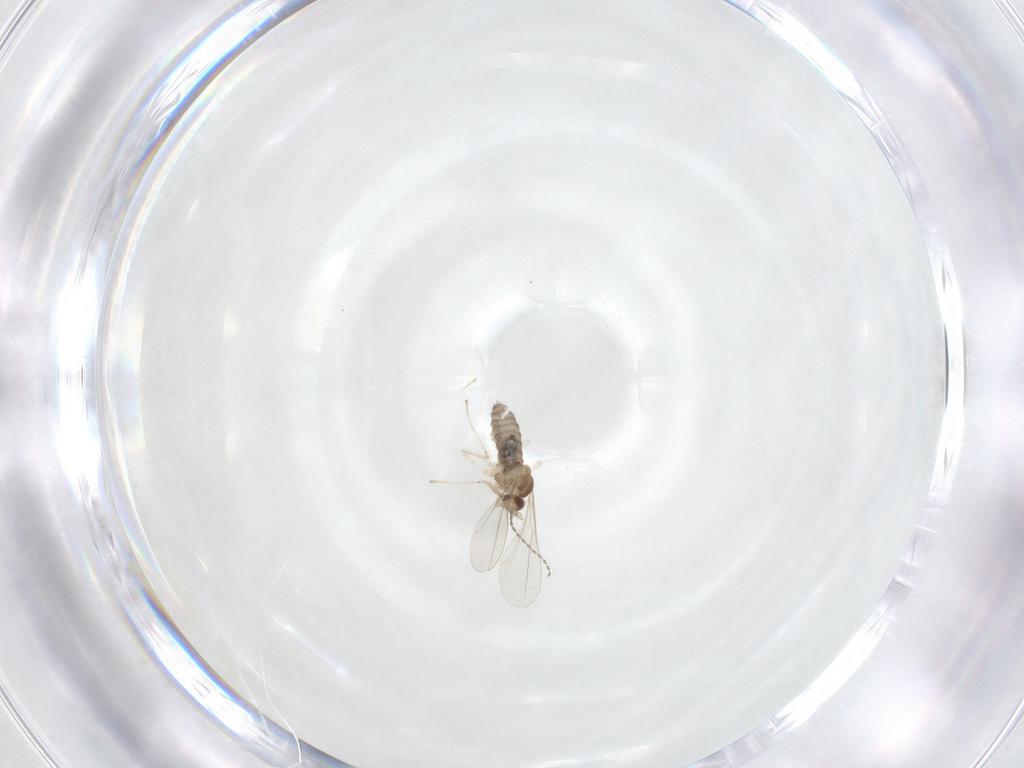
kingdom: Animalia
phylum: Arthropoda
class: Insecta
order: Diptera
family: Cecidomyiidae
